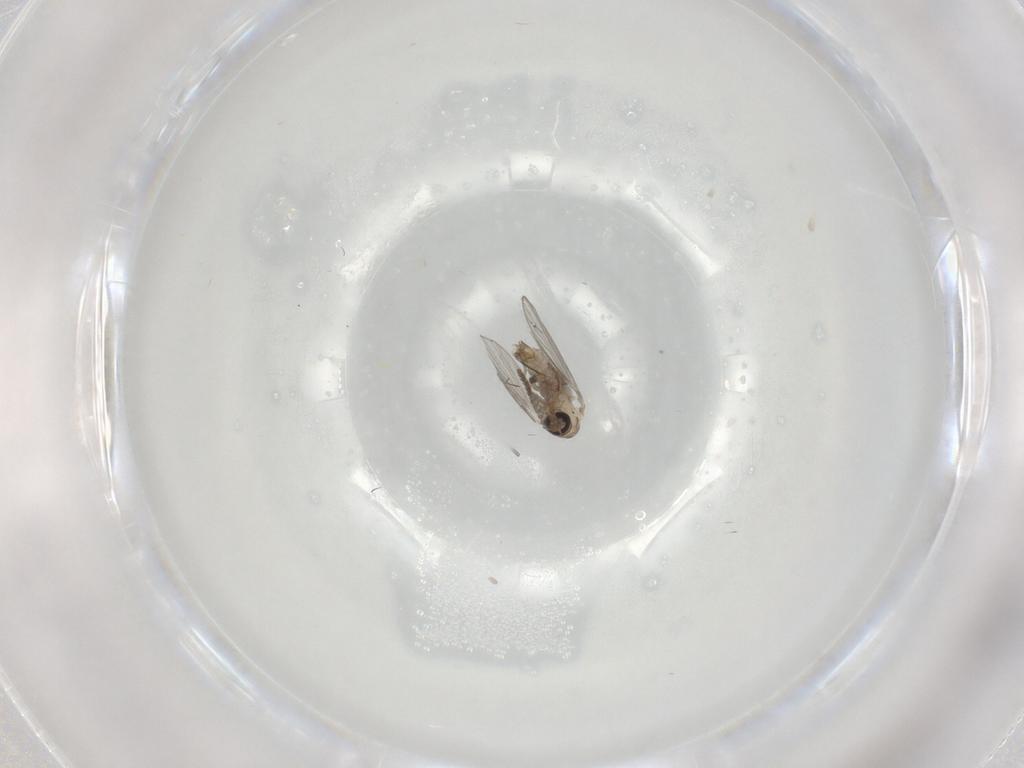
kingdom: Animalia
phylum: Arthropoda
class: Insecta
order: Diptera
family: Psychodidae
